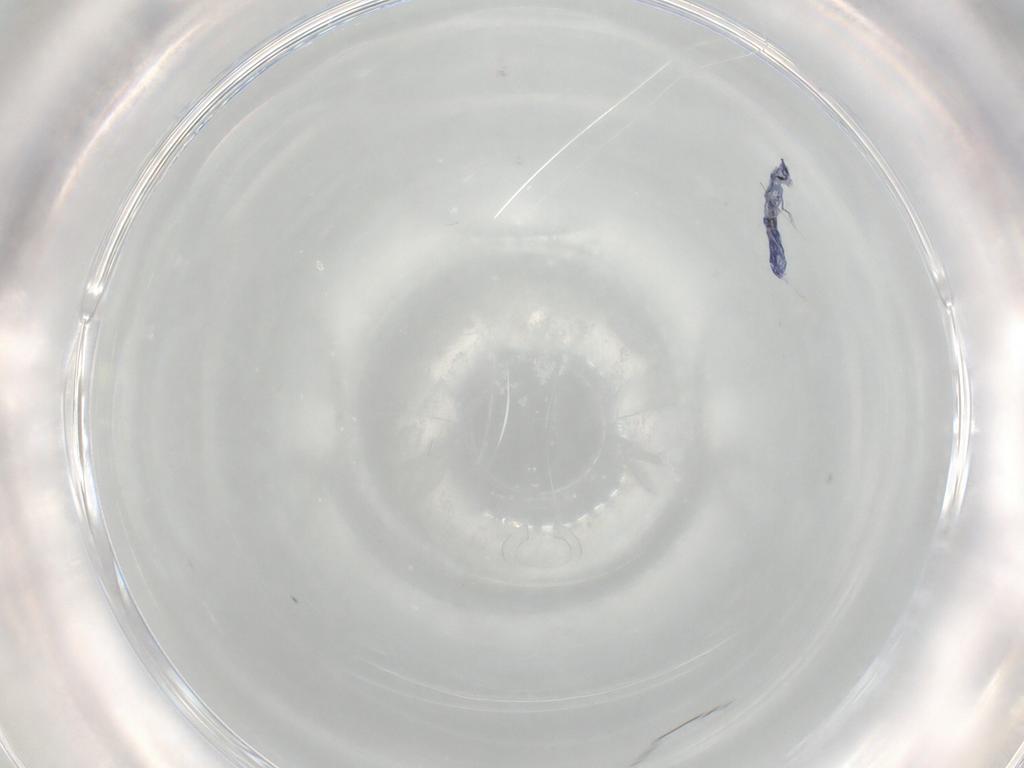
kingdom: Animalia
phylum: Arthropoda
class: Collembola
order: Entomobryomorpha
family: Entomobryidae
